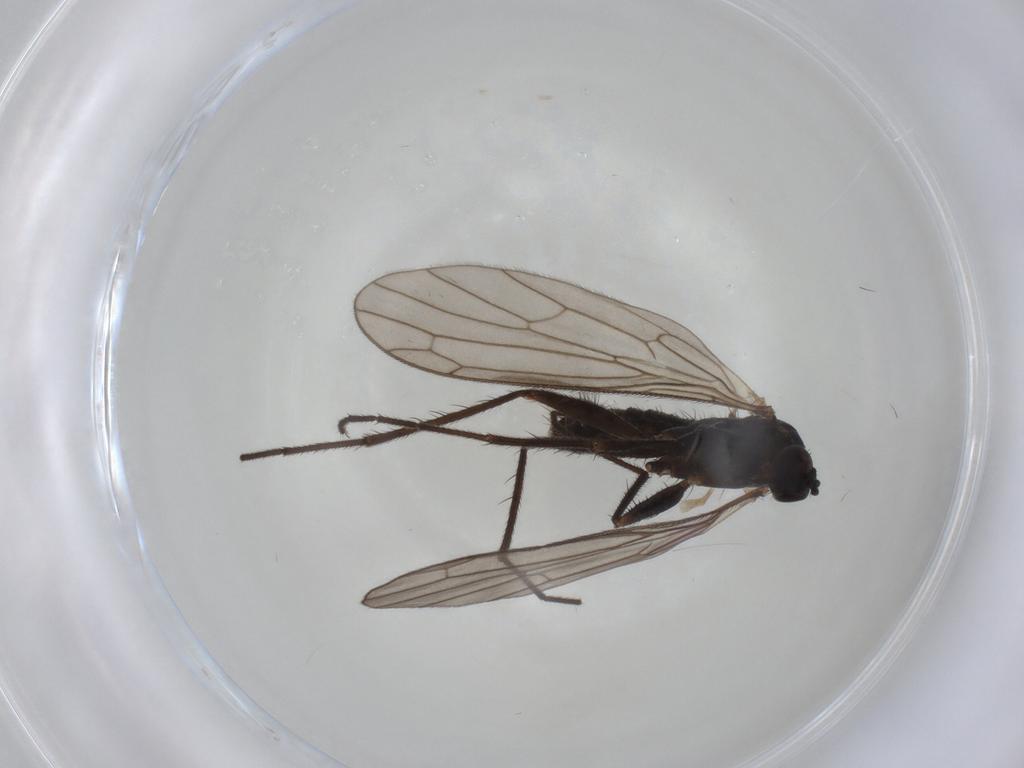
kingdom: Animalia
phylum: Arthropoda
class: Insecta
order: Diptera
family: Empididae
